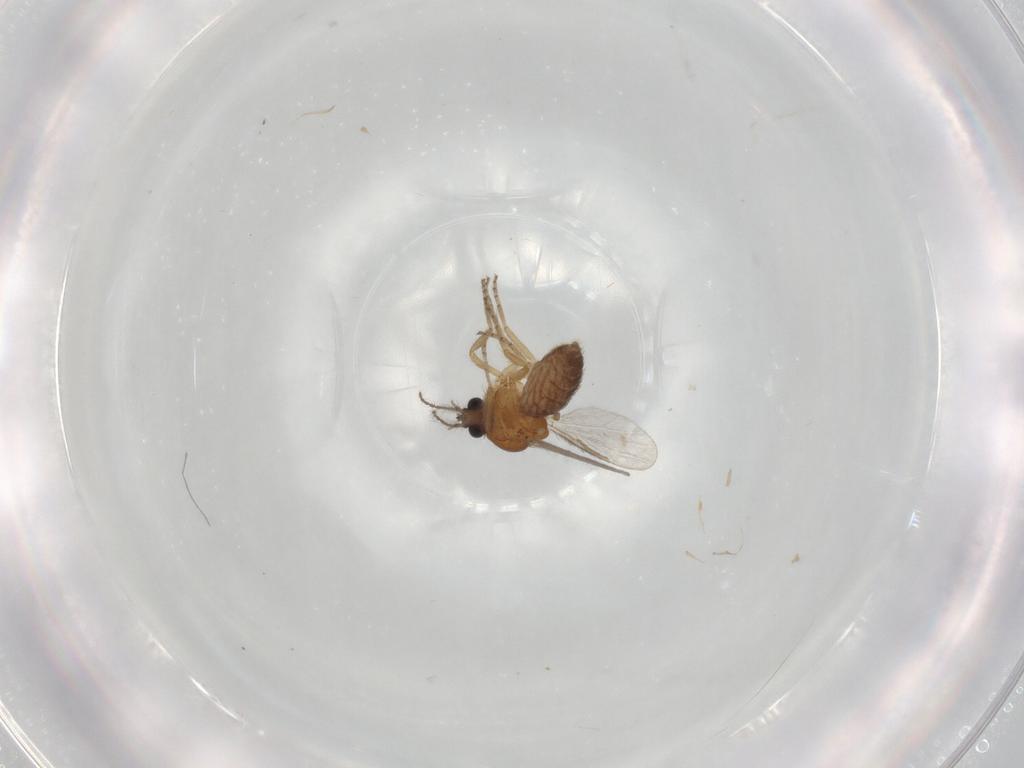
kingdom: Animalia
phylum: Arthropoda
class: Insecta
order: Diptera
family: Ceratopogonidae
